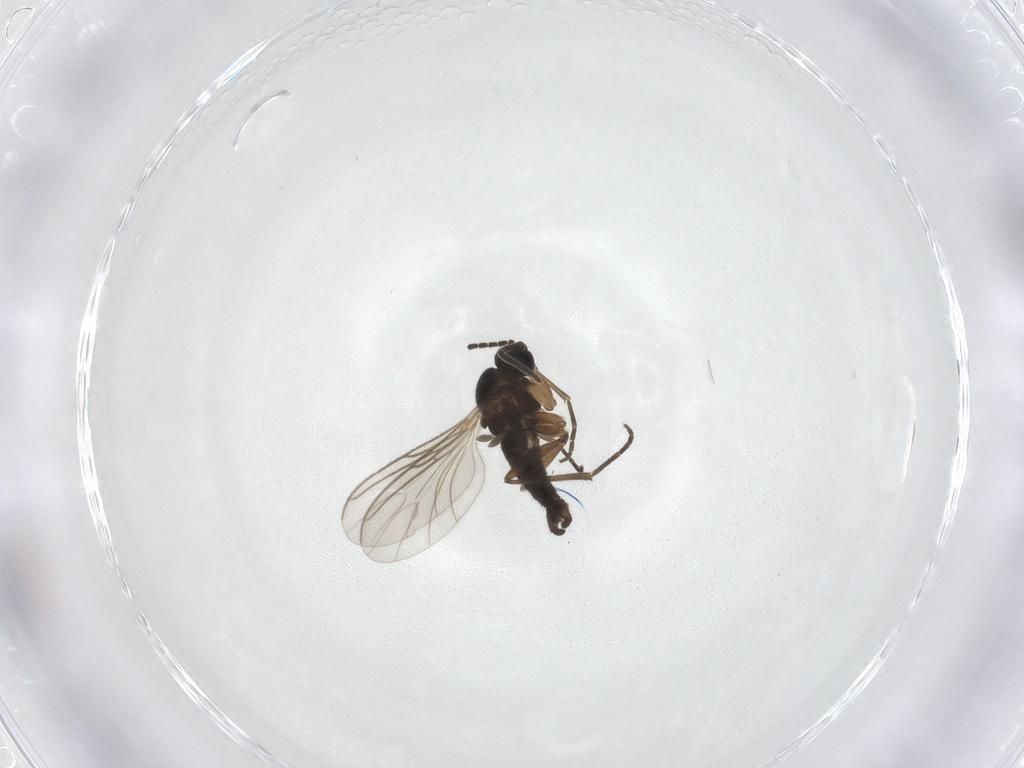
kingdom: Animalia
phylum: Arthropoda
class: Insecta
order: Diptera
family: Sciaridae
